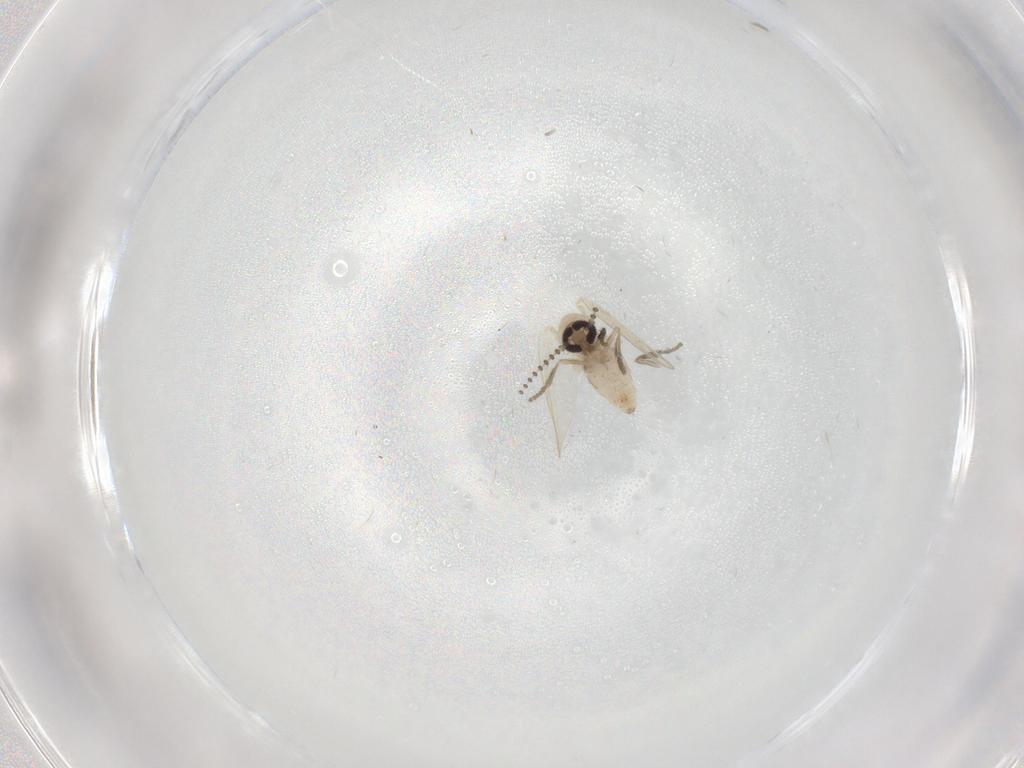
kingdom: Animalia
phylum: Arthropoda
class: Insecta
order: Diptera
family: Psychodidae
